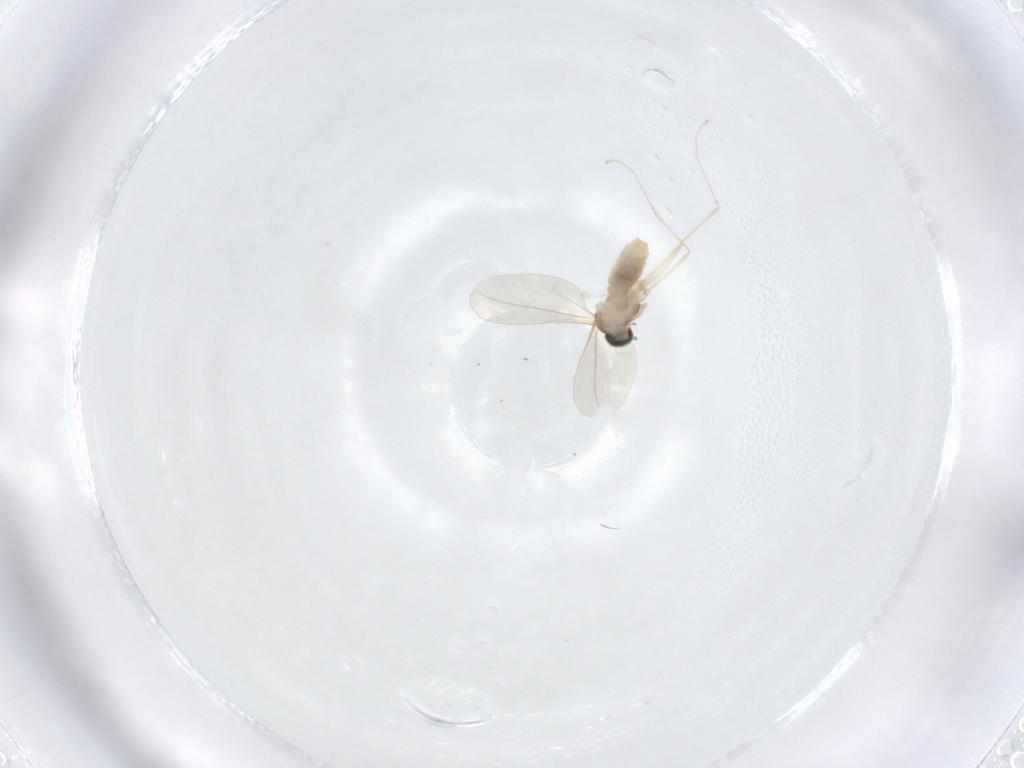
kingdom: Animalia
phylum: Arthropoda
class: Insecta
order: Diptera
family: Cecidomyiidae
